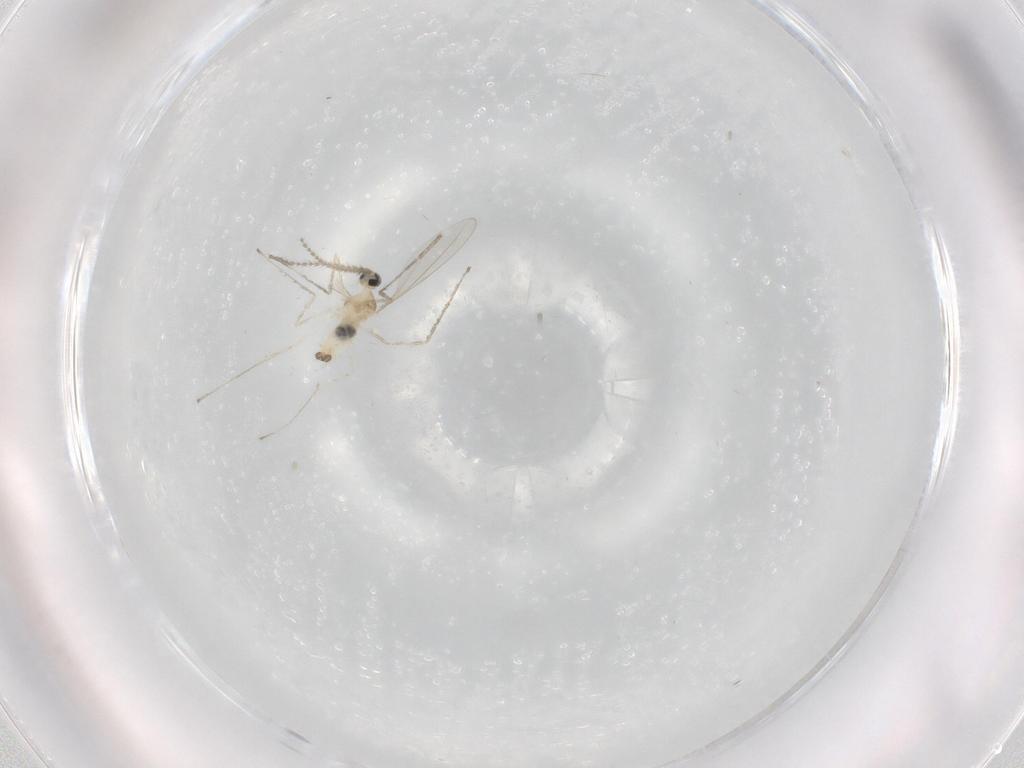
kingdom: Animalia
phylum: Arthropoda
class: Insecta
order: Diptera
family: Cecidomyiidae
